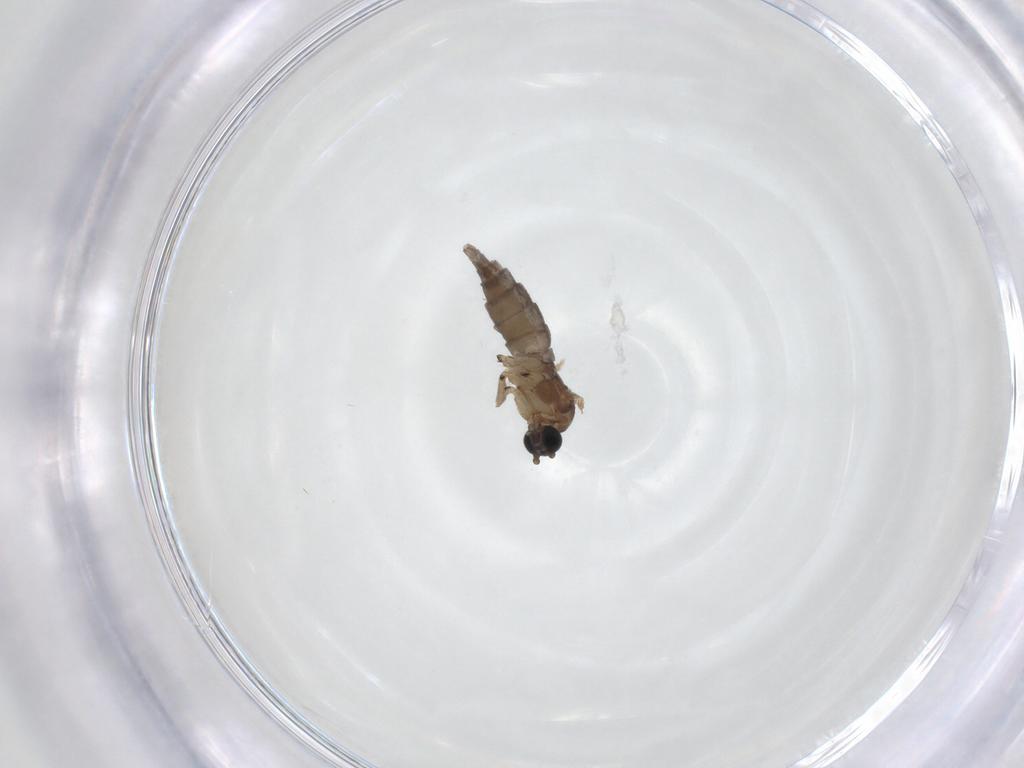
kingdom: Animalia
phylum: Arthropoda
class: Insecta
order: Diptera
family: Sciaridae
